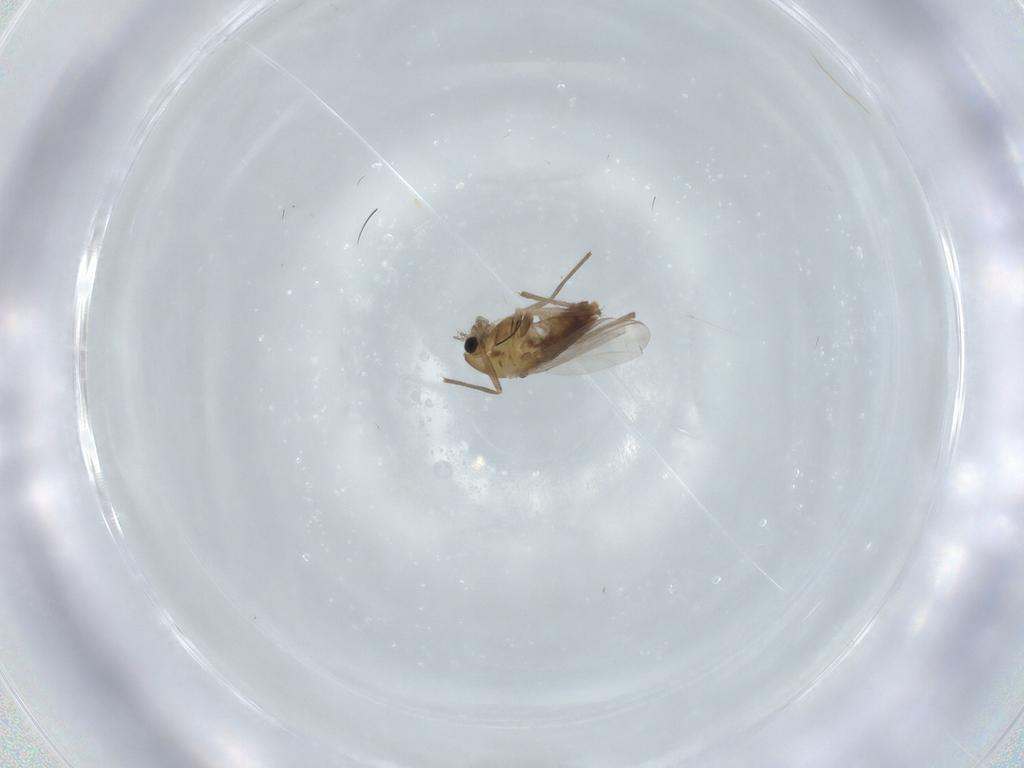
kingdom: Animalia
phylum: Arthropoda
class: Insecta
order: Diptera
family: Chironomidae
